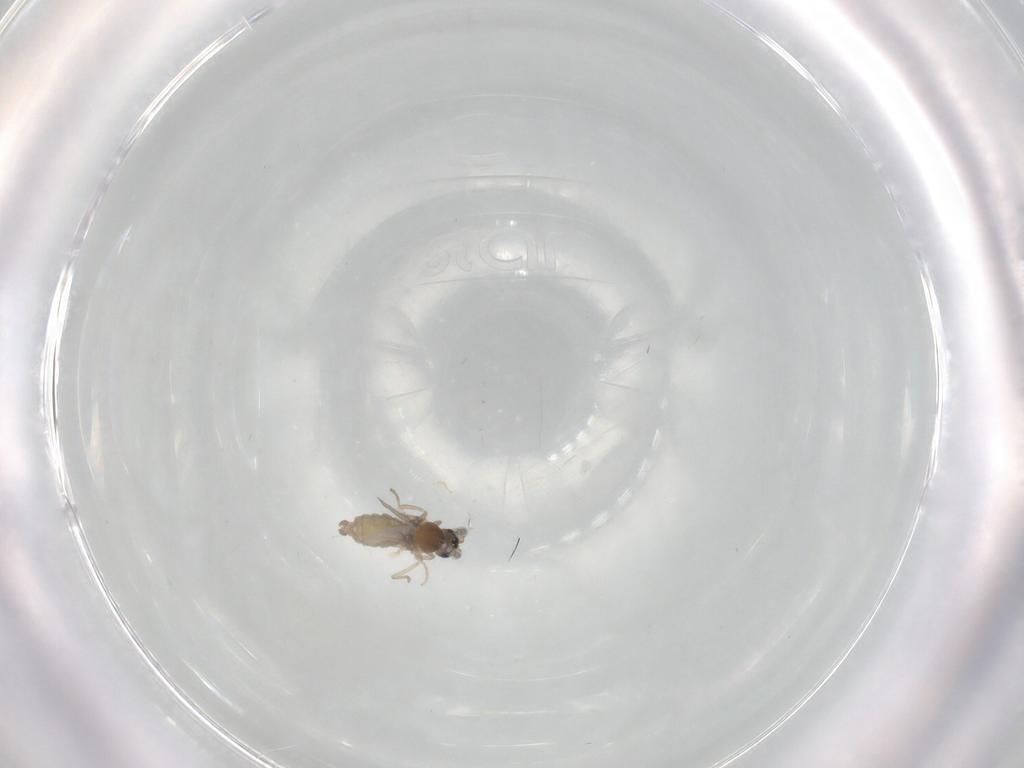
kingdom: Animalia
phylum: Arthropoda
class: Insecta
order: Diptera
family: Cecidomyiidae
